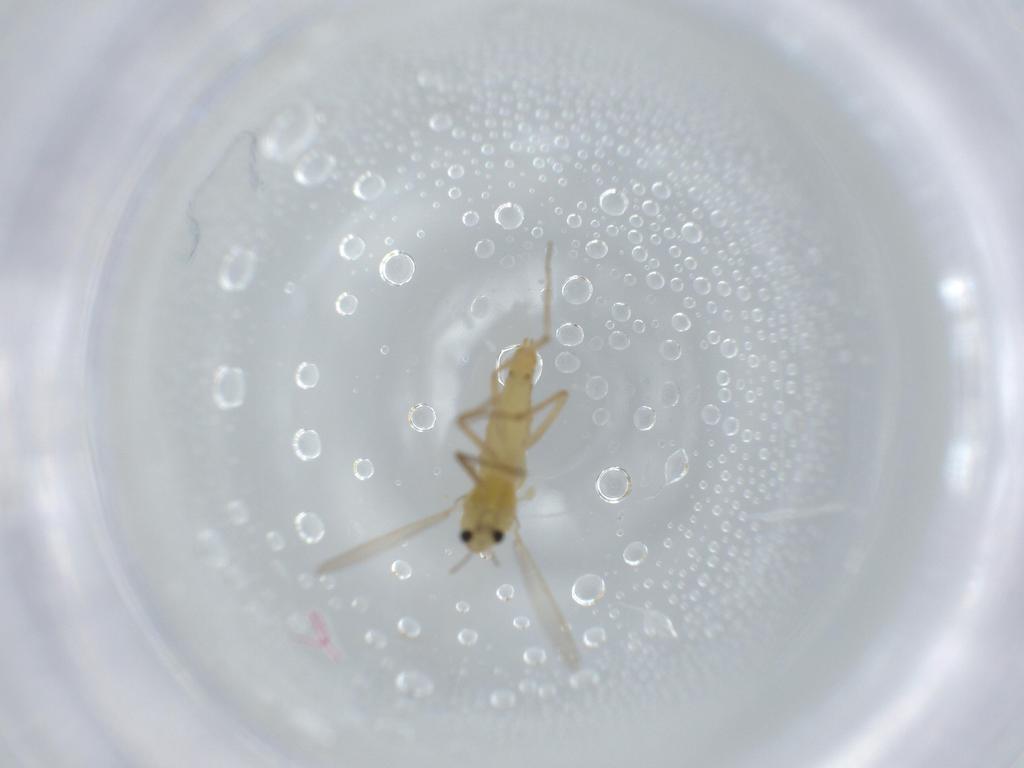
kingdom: Animalia
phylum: Arthropoda
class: Insecta
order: Diptera
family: Chironomidae
